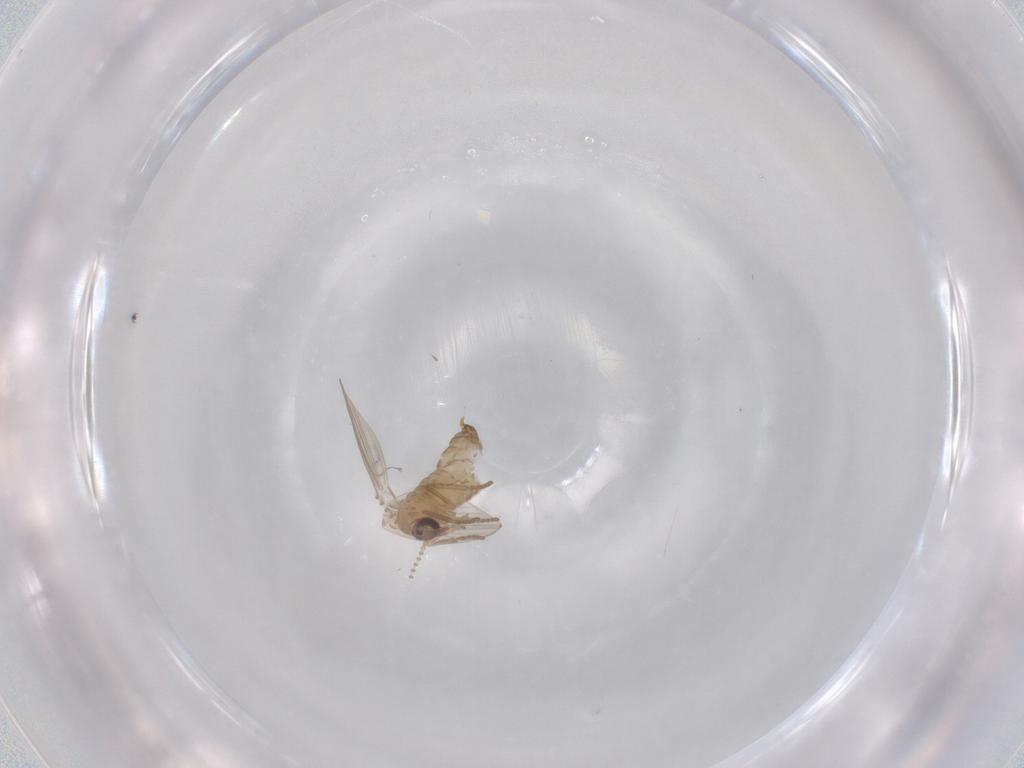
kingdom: Animalia
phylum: Arthropoda
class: Insecta
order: Diptera
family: Psychodidae
